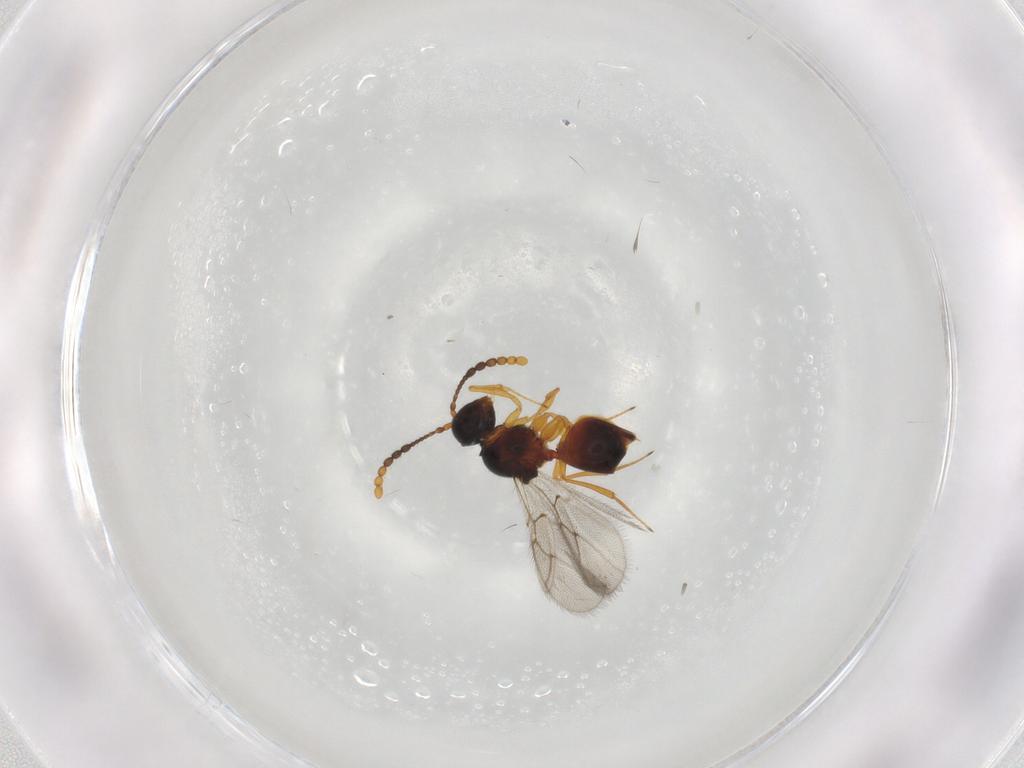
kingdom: Animalia
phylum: Arthropoda
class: Insecta
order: Hymenoptera
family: Figitidae
